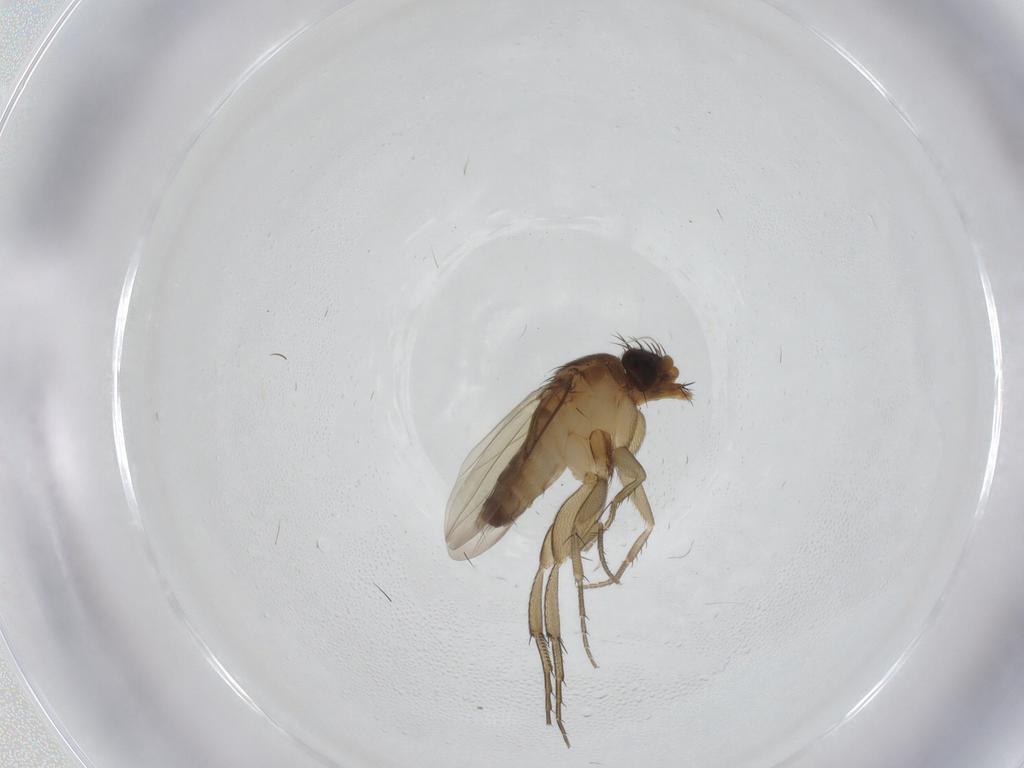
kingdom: Animalia
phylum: Arthropoda
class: Insecta
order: Diptera
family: Phoridae
